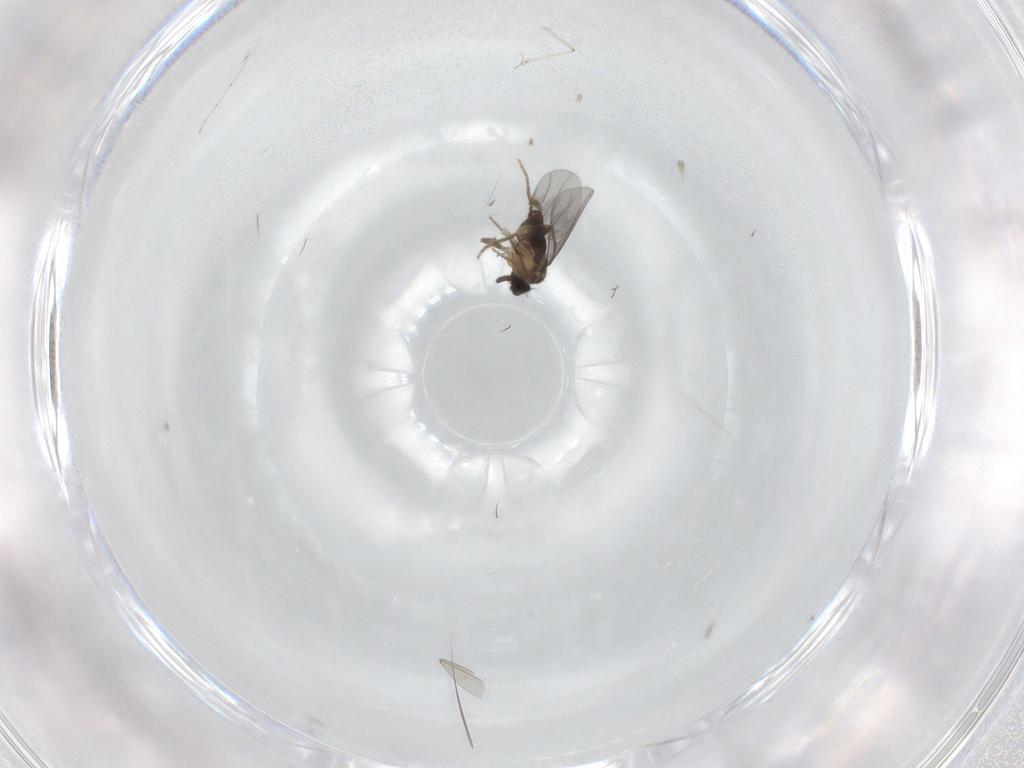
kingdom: Animalia
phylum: Arthropoda
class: Insecta
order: Diptera
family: Cecidomyiidae
